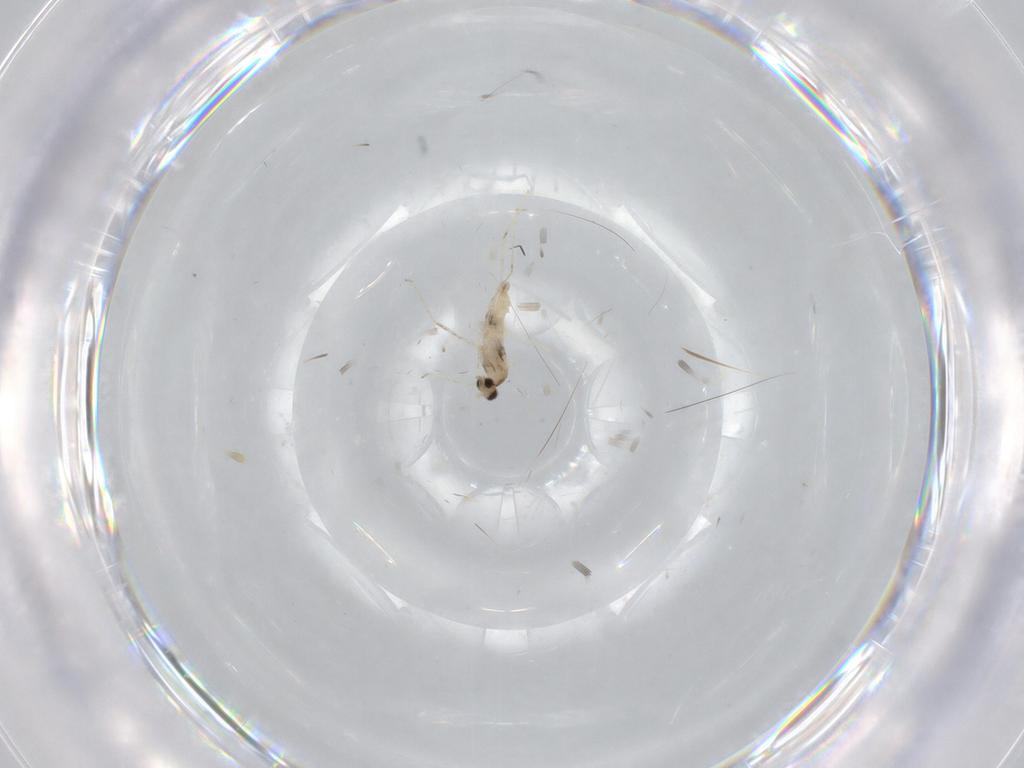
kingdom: Animalia
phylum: Arthropoda
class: Insecta
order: Diptera
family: Cecidomyiidae
